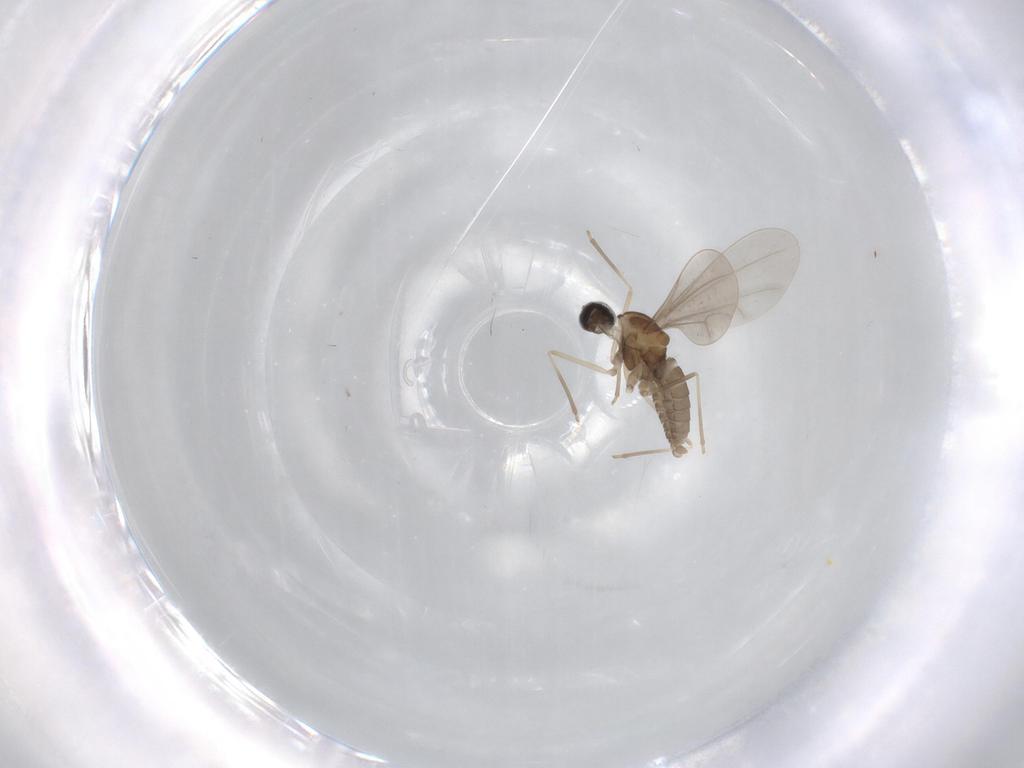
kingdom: Animalia
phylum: Arthropoda
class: Insecta
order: Diptera
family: Cecidomyiidae
